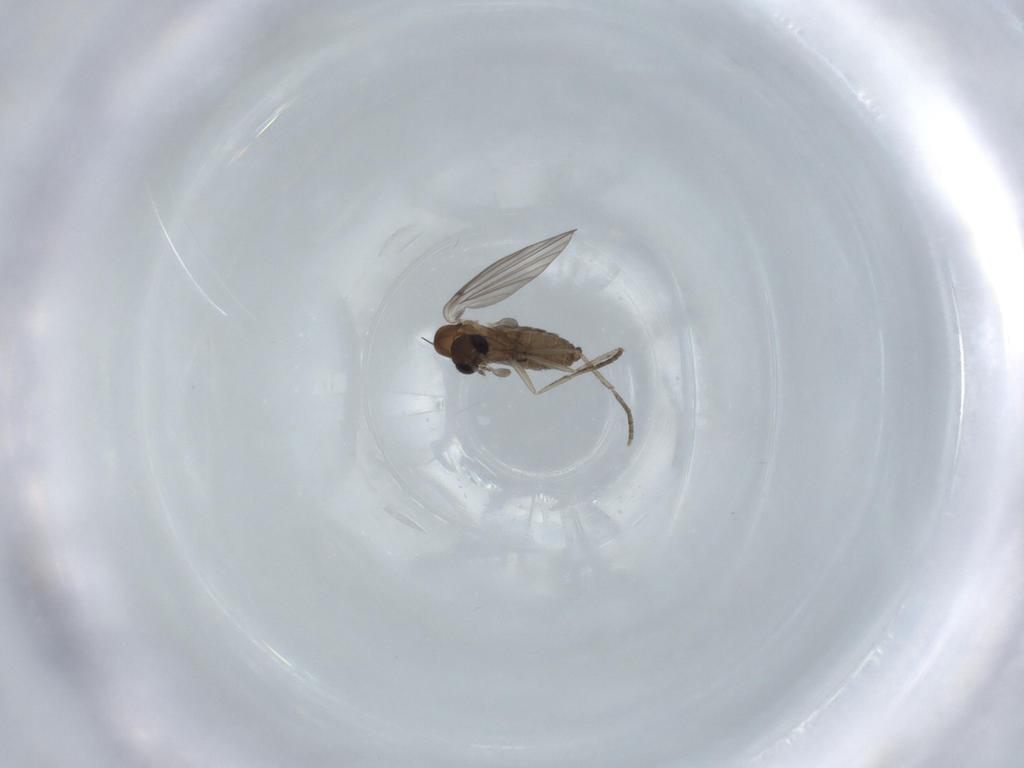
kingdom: Animalia
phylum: Arthropoda
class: Insecta
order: Diptera
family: Psychodidae
